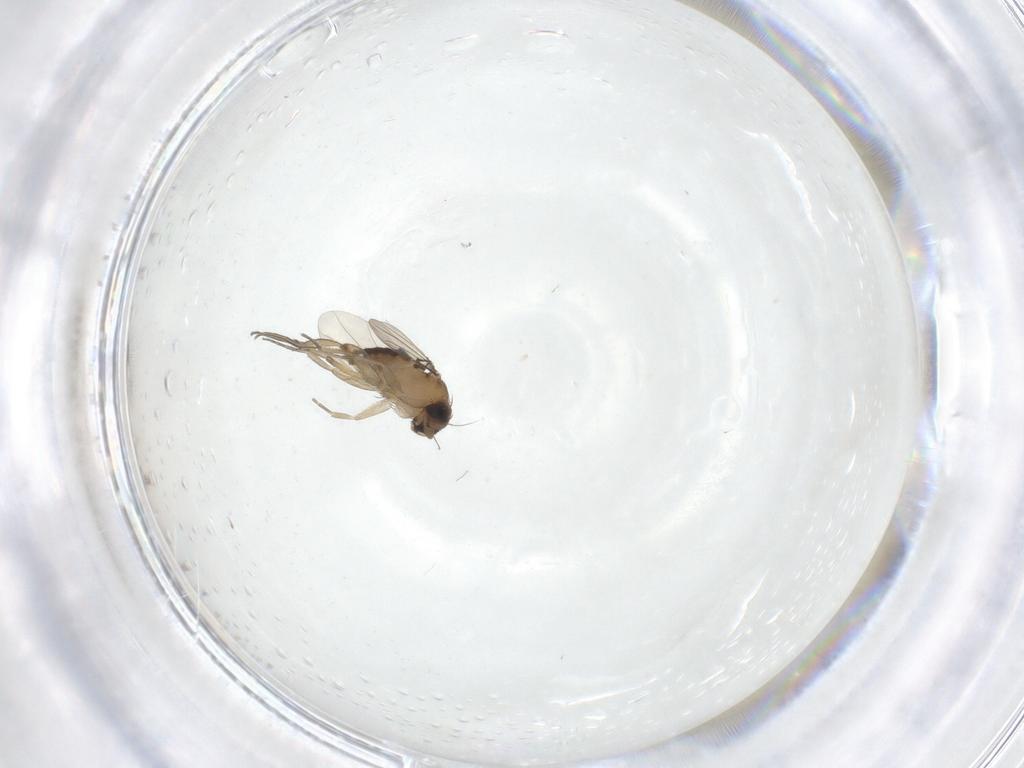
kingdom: Animalia
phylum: Arthropoda
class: Insecta
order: Diptera
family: Phoridae
